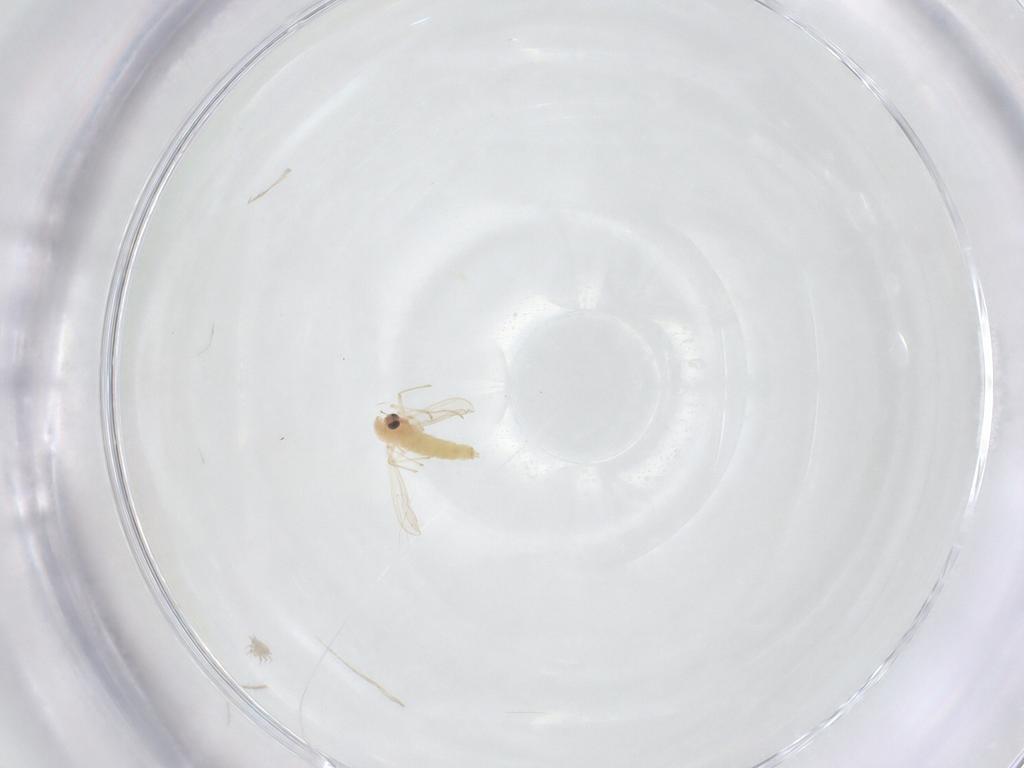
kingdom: Animalia
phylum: Arthropoda
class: Insecta
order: Diptera
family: Chironomidae
